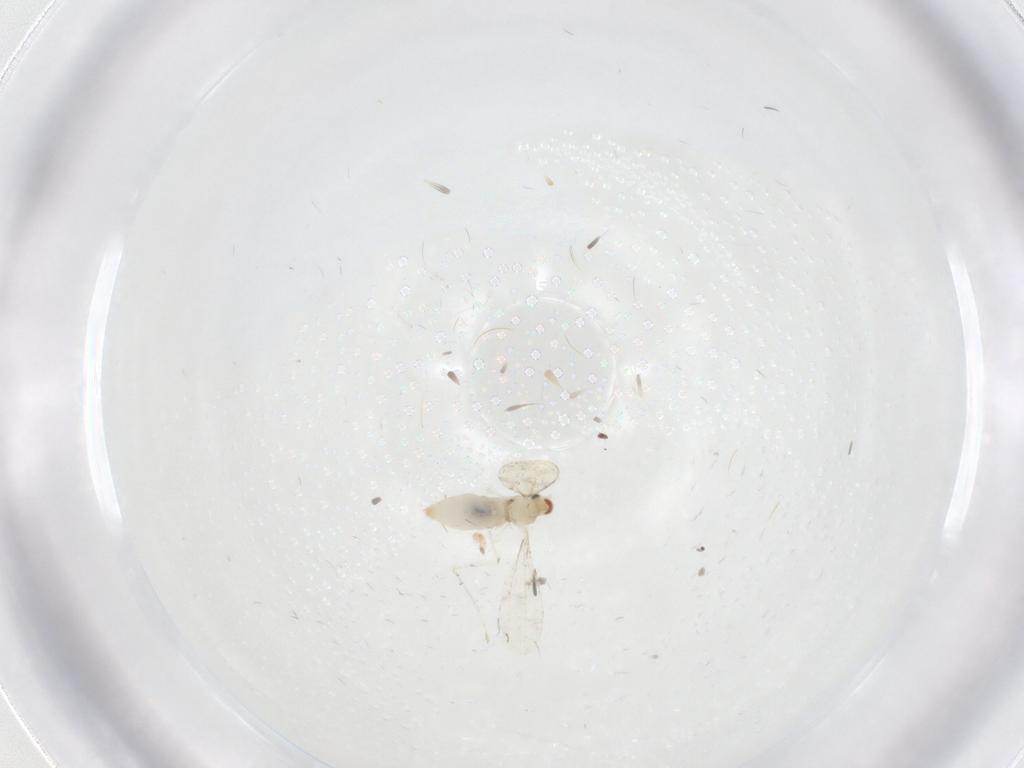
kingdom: Animalia
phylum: Arthropoda
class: Insecta
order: Diptera
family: Cecidomyiidae
